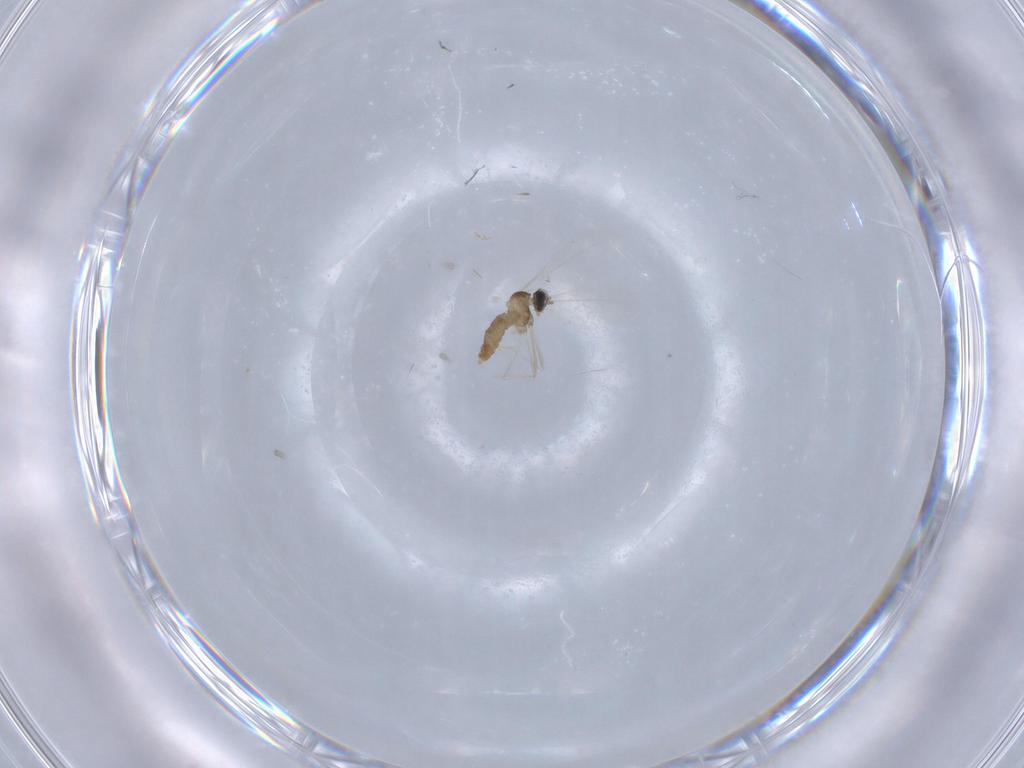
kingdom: Animalia
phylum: Arthropoda
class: Insecta
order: Diptera
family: Cecidomyiidae
